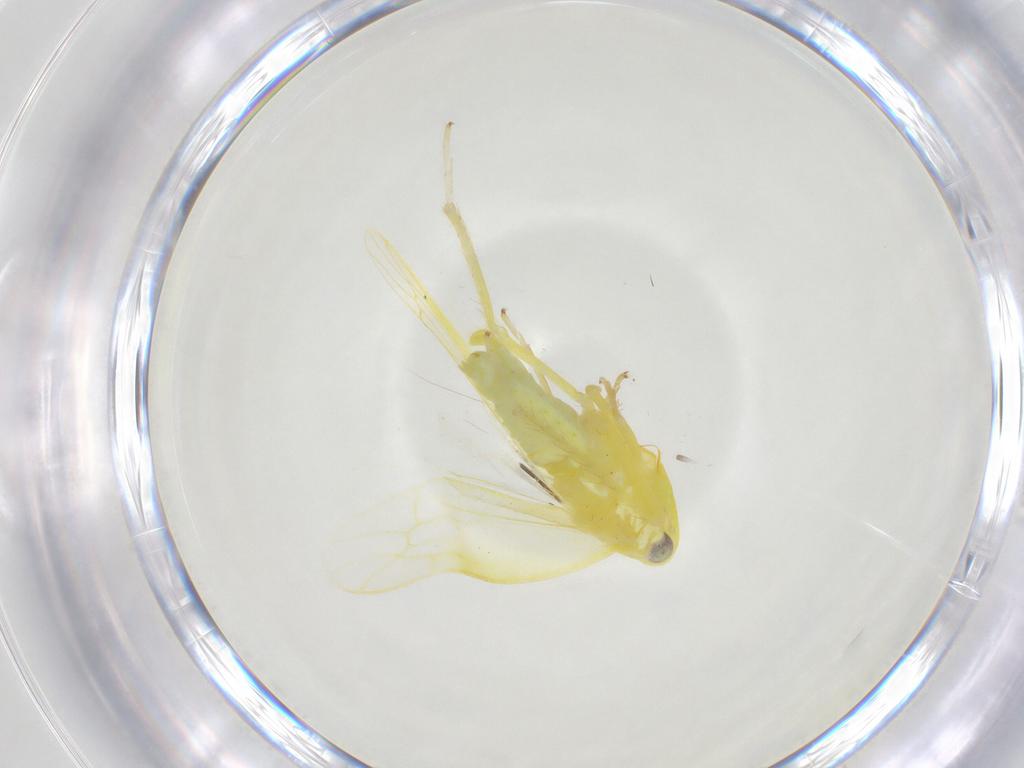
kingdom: Animalia
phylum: Arthropoda
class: Insecta
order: Hemiptera
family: Cicadellidae
